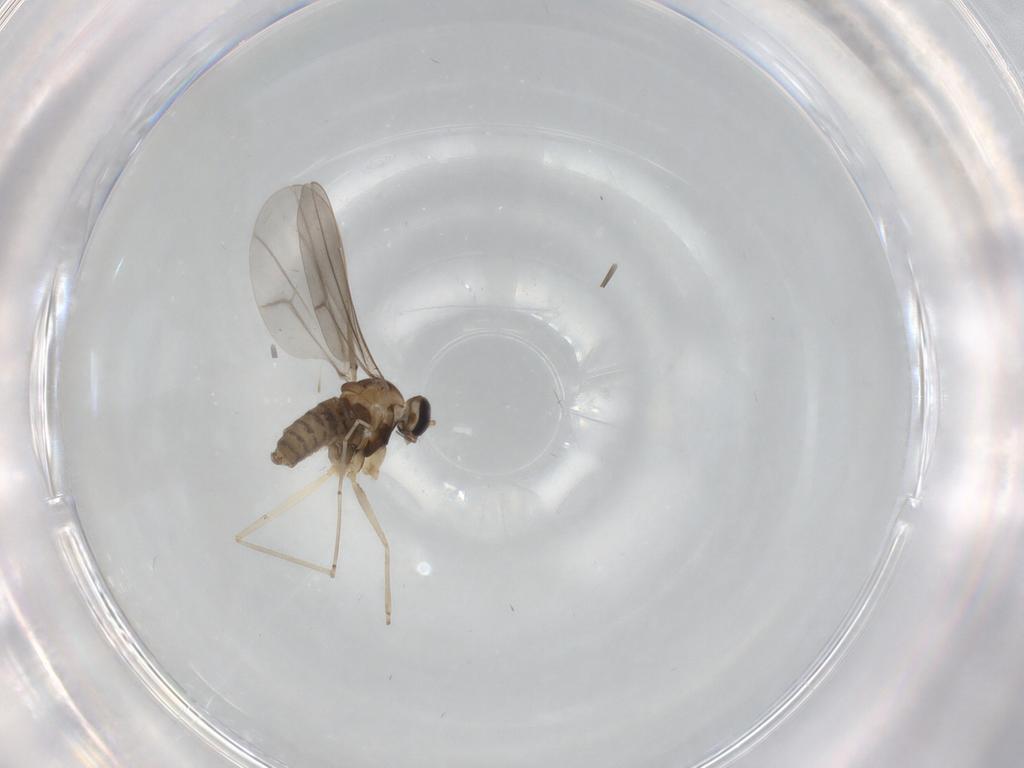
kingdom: Animalia
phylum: Arthropoda
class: Insecta
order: Diptera
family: Cecidomyiidae
